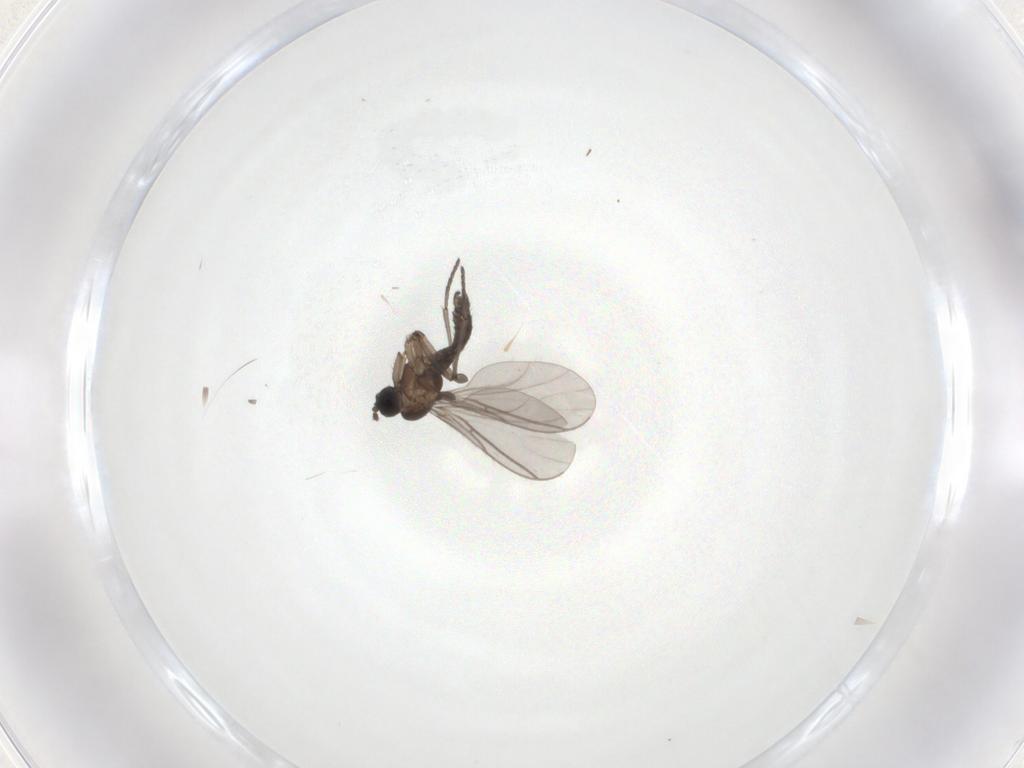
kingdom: Animalia
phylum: Arthropoda
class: Insecta
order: Diptera
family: Sciaridae
